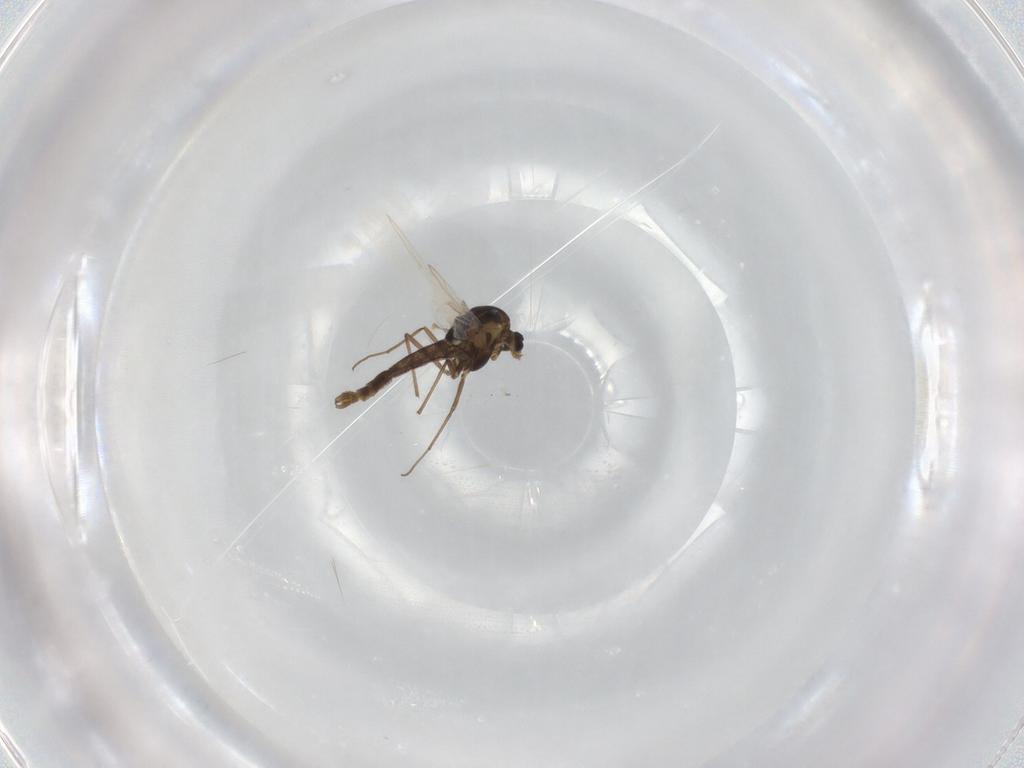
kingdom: Animalia
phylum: Arthropoda
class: Insecta
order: Diptera
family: Chironomidae
